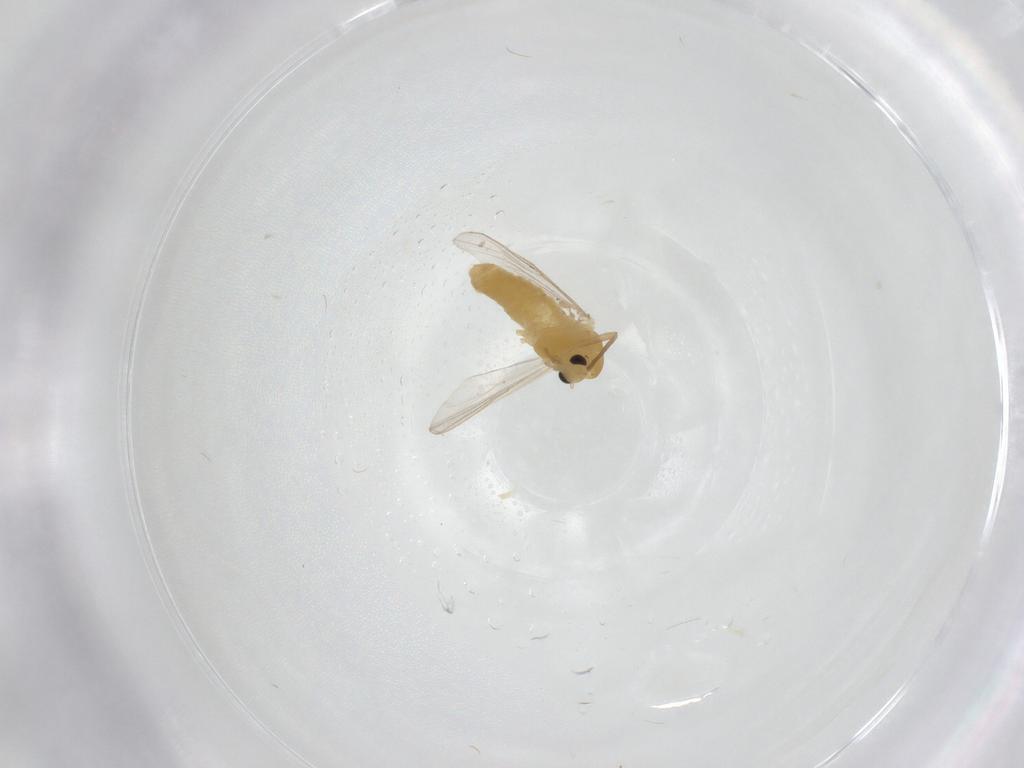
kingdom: Animalia
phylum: Arthropoda
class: Insecta
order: Diptera
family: Chironomidae
